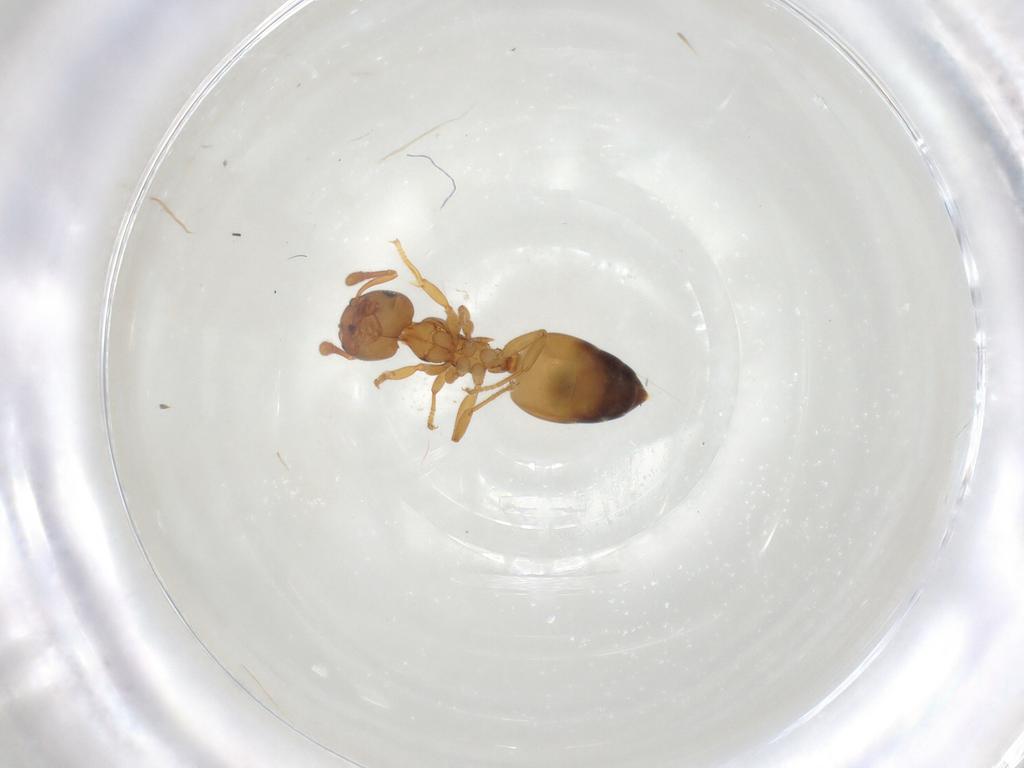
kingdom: Animalia
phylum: Arthropoda
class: Insecta
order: Hymenoptera
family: Formicidae
